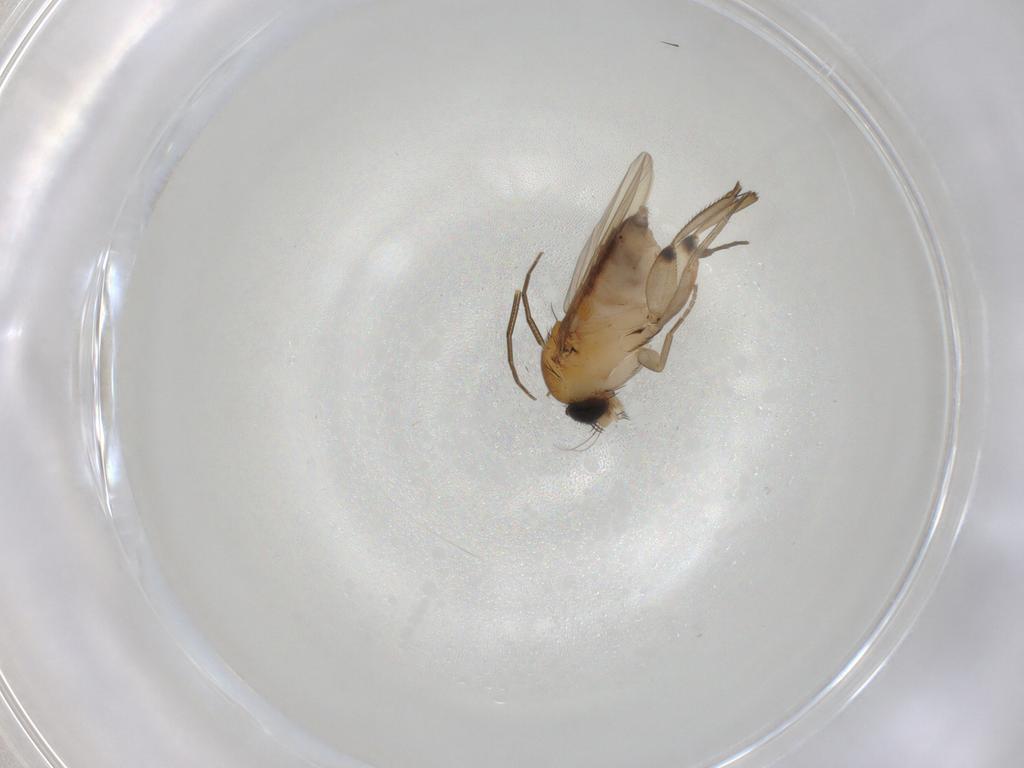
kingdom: Animalia
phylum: Arthropoda
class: Insecta
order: Diptera
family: Phoridae
